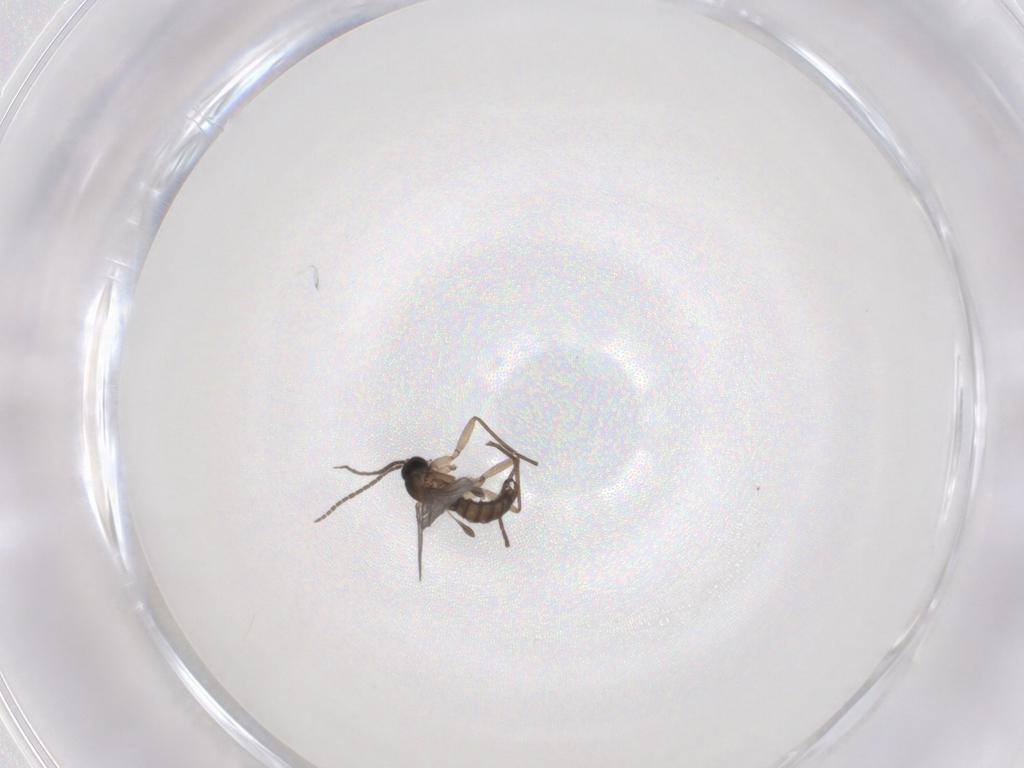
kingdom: Animalia
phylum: Arthropoda
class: Insecta
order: Diptera
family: Sciaridae
